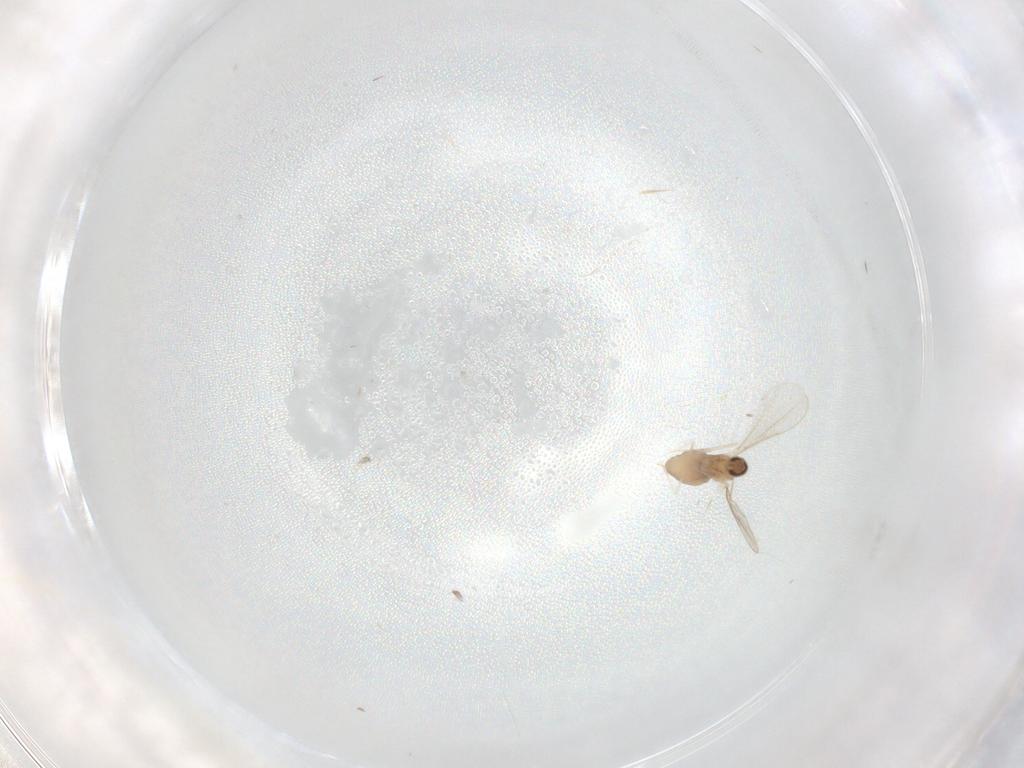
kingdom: Animalia
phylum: Arthropoda
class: Insecta
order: Diptera
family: Cecidomyiidae
